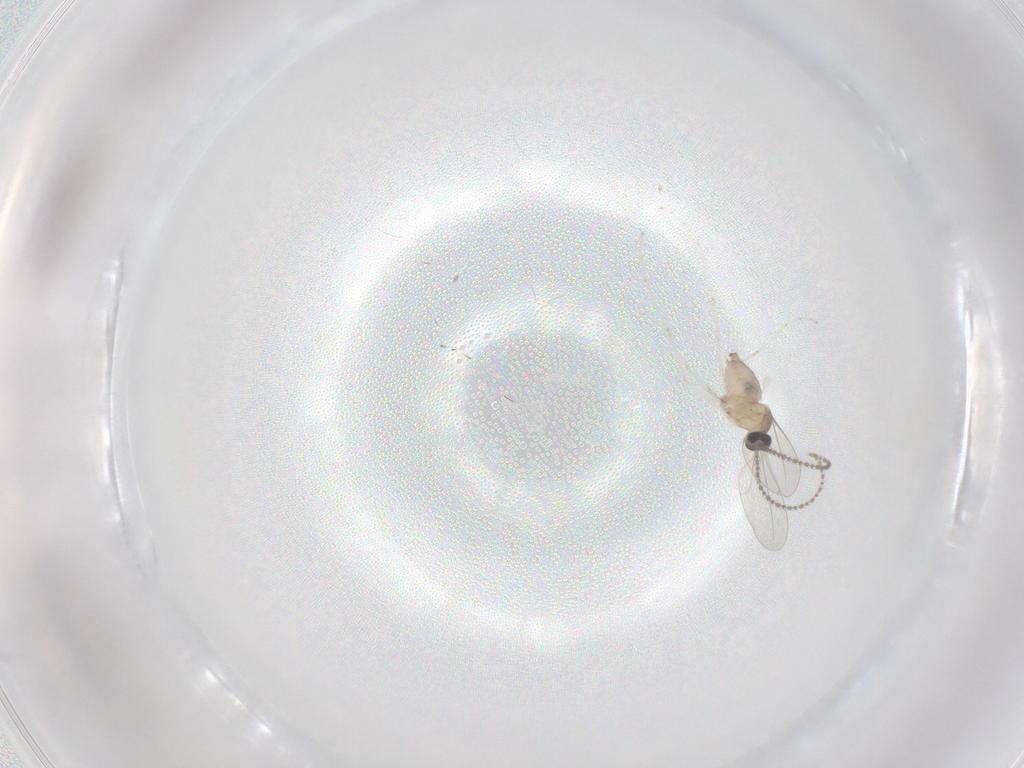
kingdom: Animalia
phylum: Arthropoda
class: Insecta
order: Diptera
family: Cecidomyiidae
